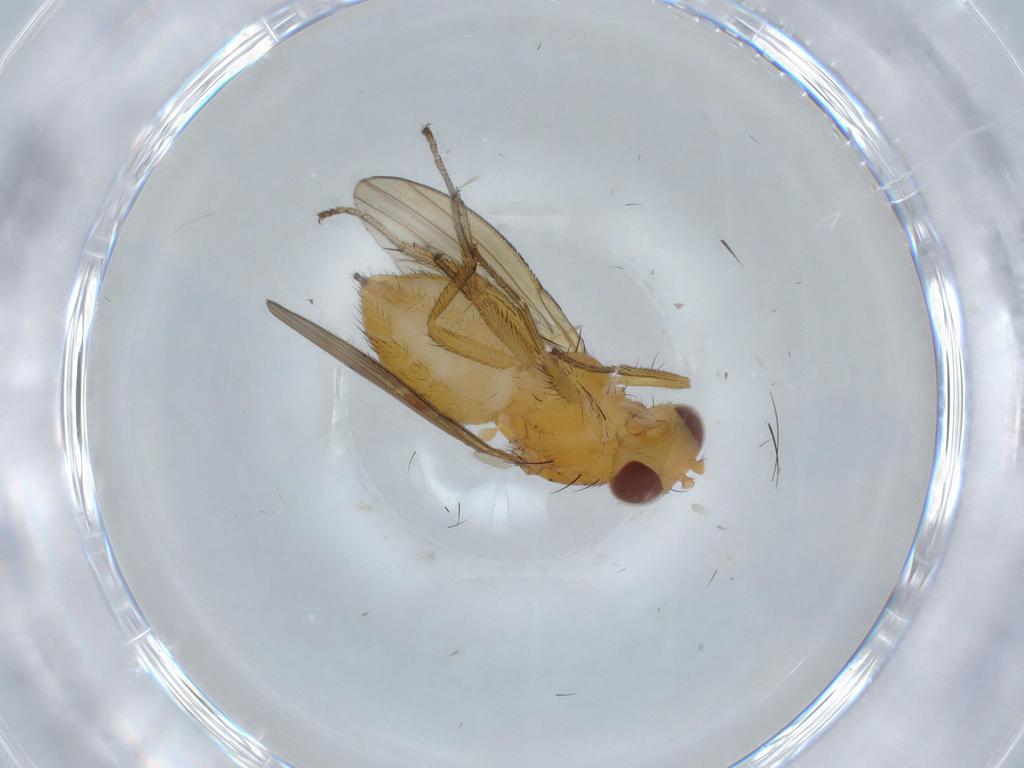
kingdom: Animalia
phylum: Arthropoda
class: Insecta
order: Diptera
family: Lauxaniidae
